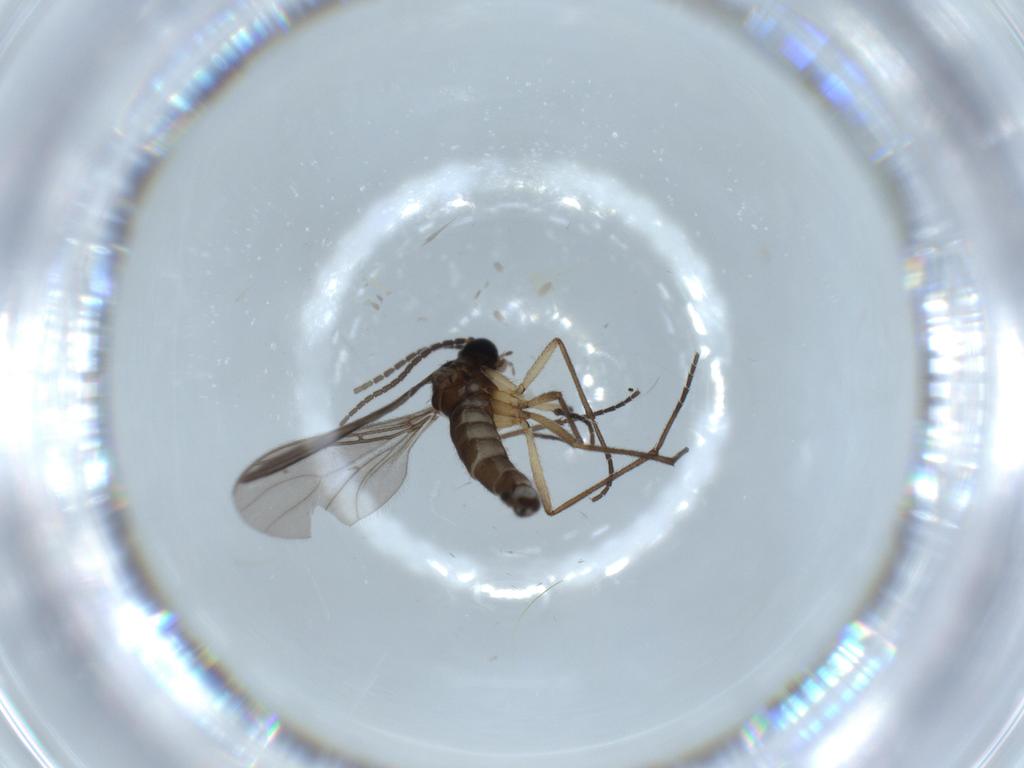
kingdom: Animalia
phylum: Arthropoda
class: Insecta
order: Diptera
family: Sciaridae
